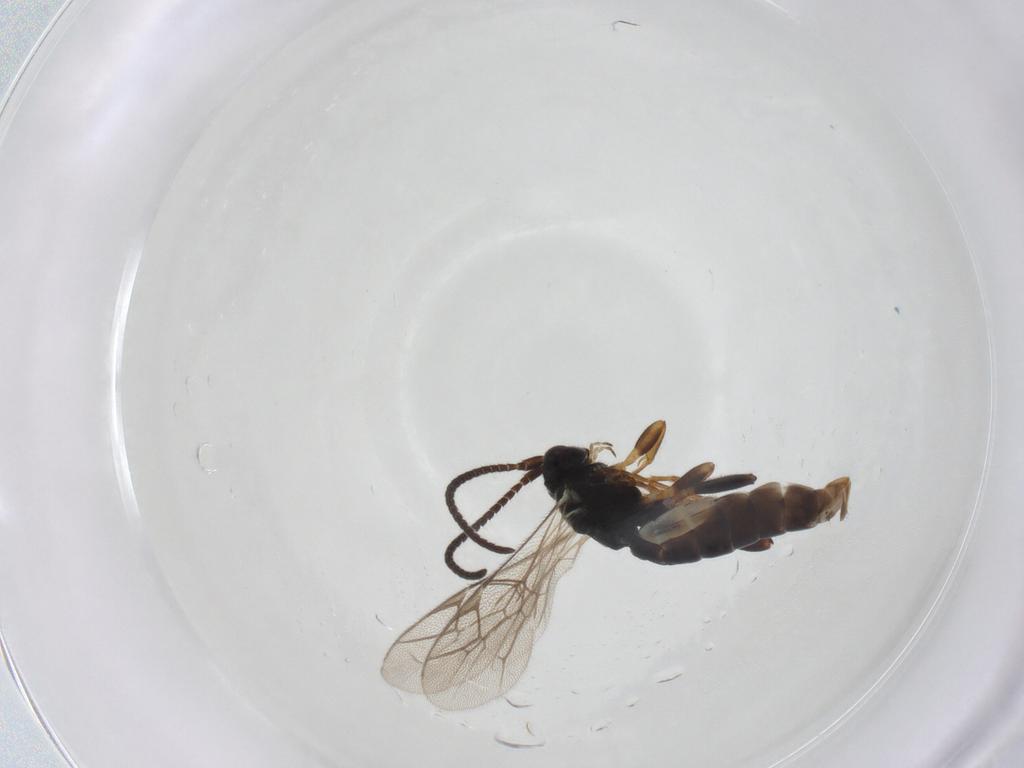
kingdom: Animalia
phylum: Arthropoda
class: Insecta
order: Hymenoptera
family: Ichneumonidae
